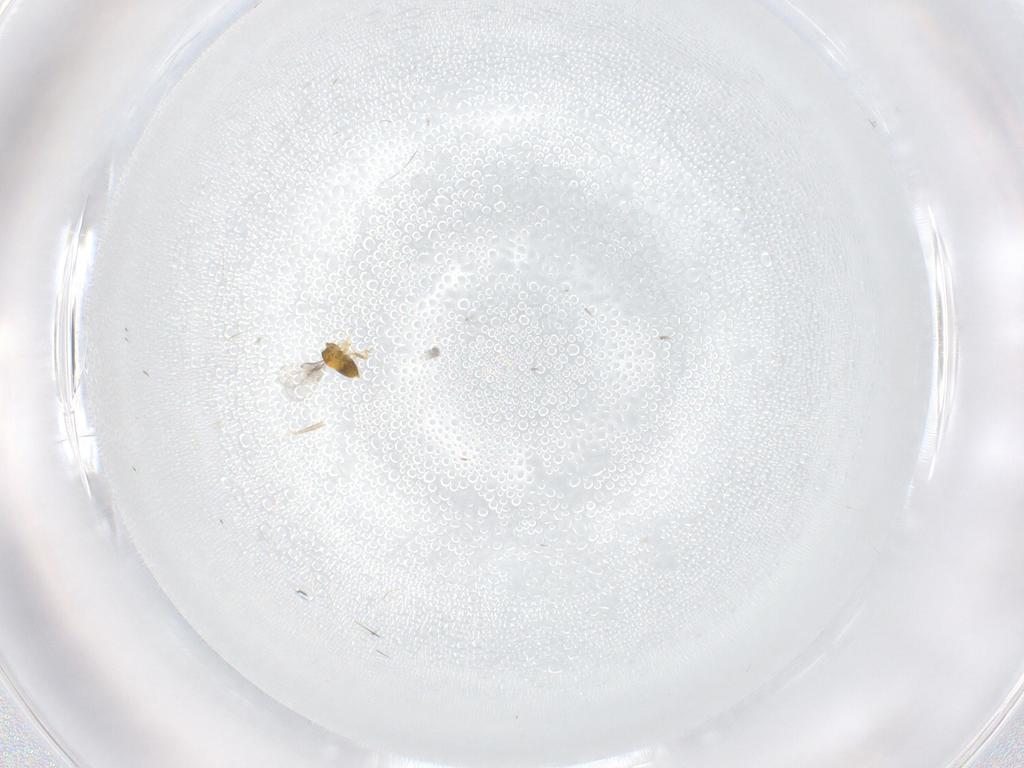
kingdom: Animalia
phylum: Arthropoda
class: Insecta
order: Hymenoptera
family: Trichogrammatidae
